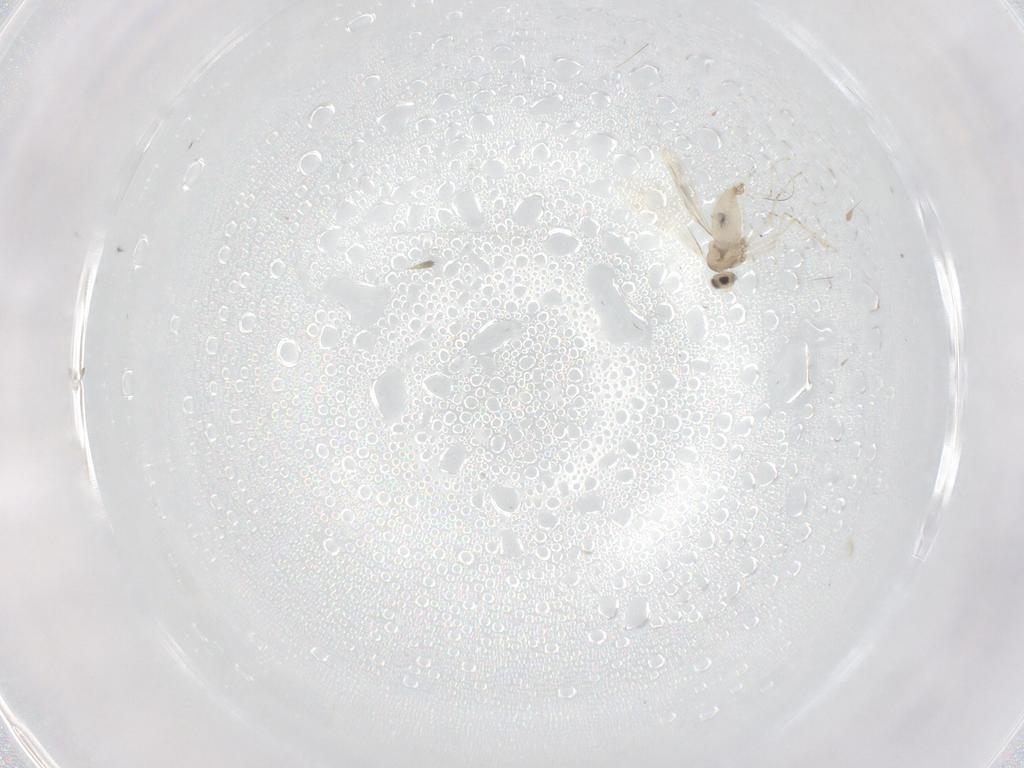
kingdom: Animalia
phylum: Arthropoda
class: Insecta
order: Diptera
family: Cecidomyiidae
